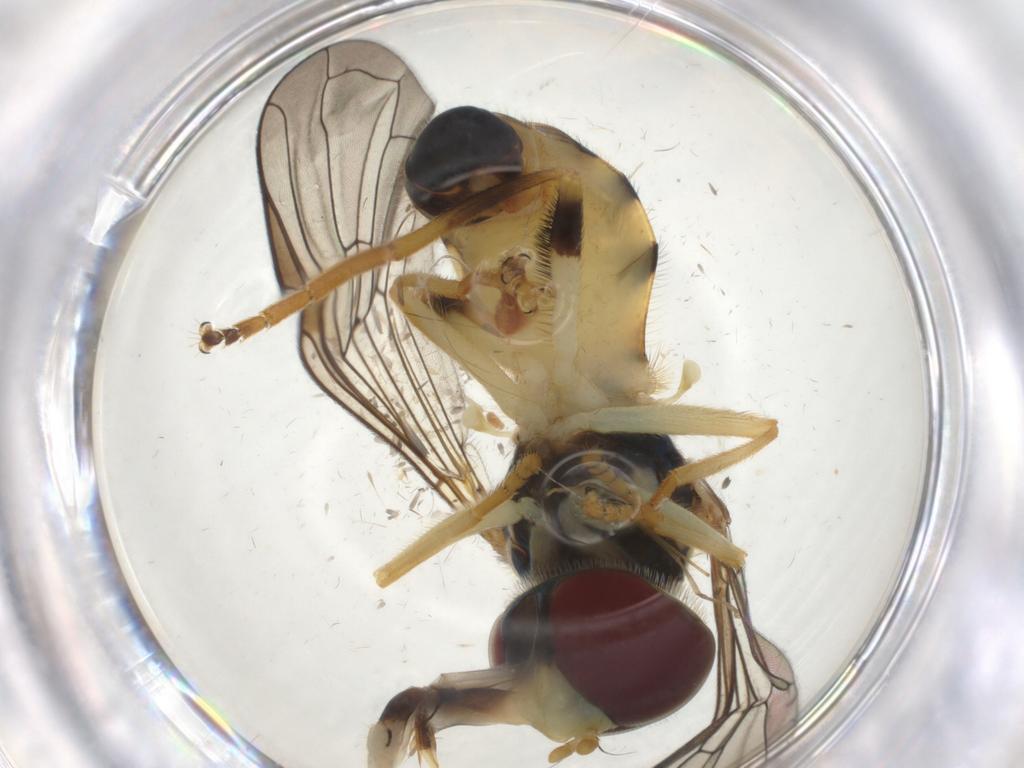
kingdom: Animalia
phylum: Arthropoda
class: Insecta
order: Diptera
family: Syrphidae
